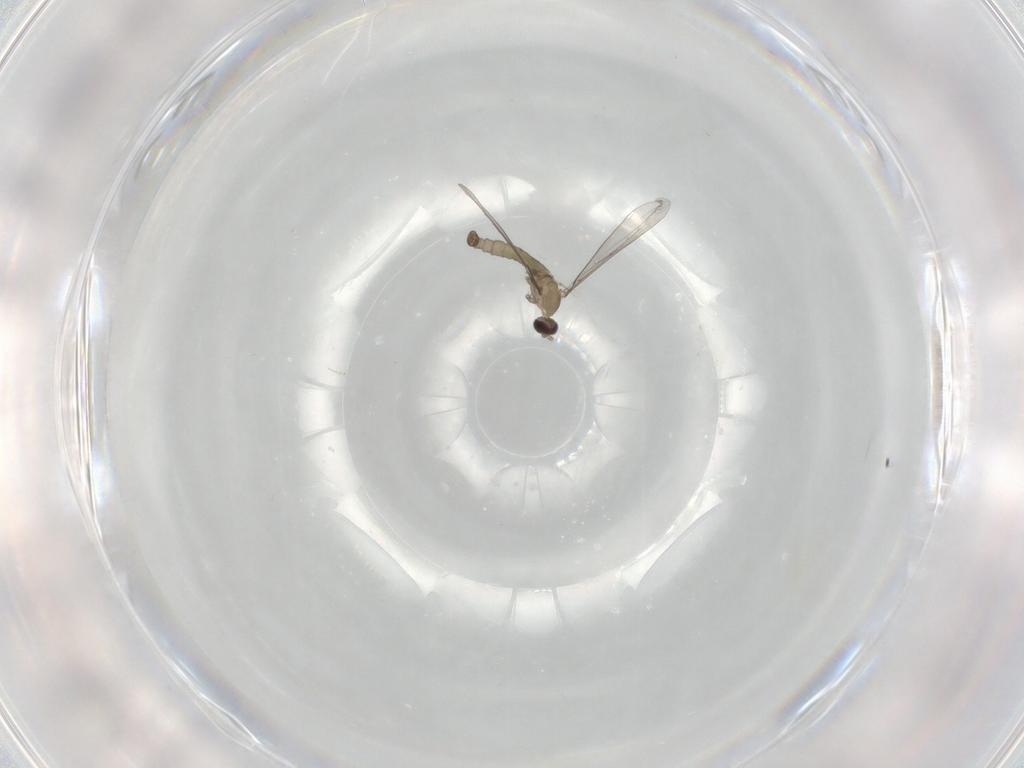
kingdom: Animalia
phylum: Arthropoda
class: Insecta
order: Diptera
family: Cecidomyiidae
